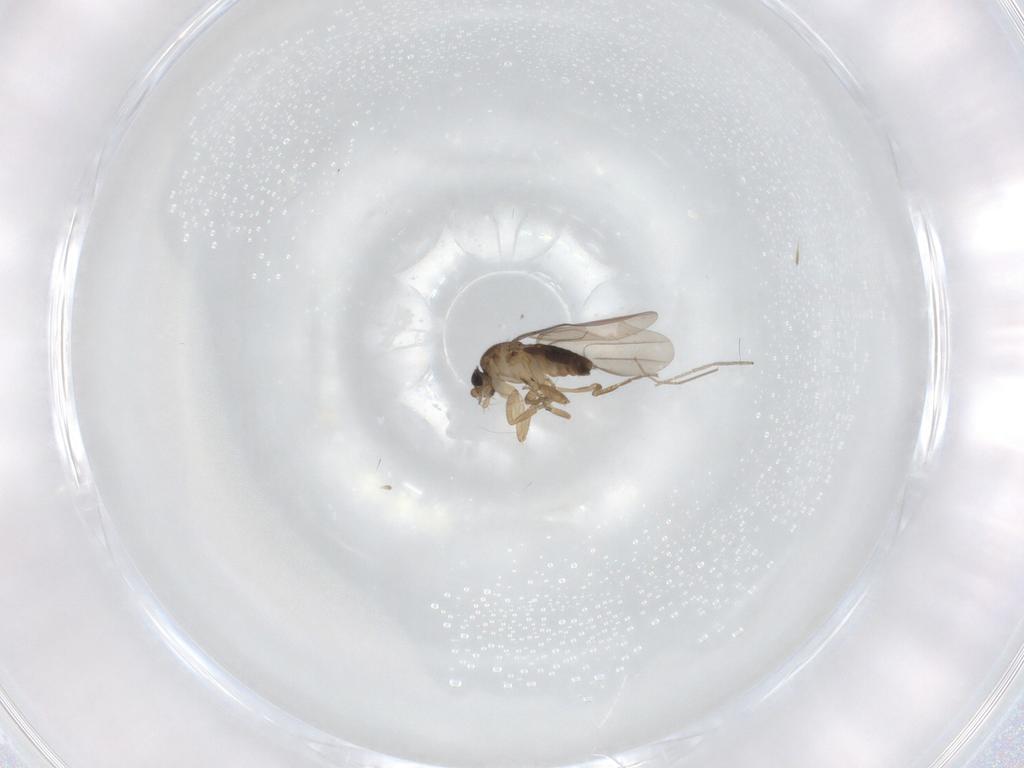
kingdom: Animalia
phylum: Arthropoda
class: Insecta
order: Diptera
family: Phoridae
